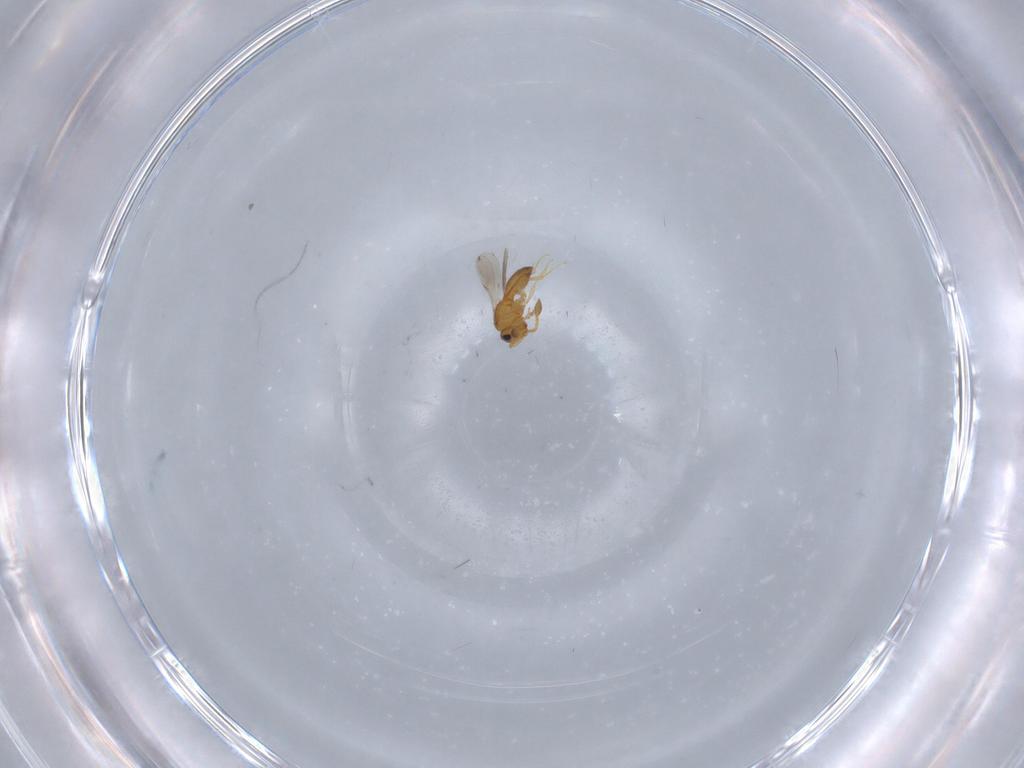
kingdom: Animalia
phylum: Arthropoda
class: Insecta
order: Hymenoptera
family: Scelionidae
